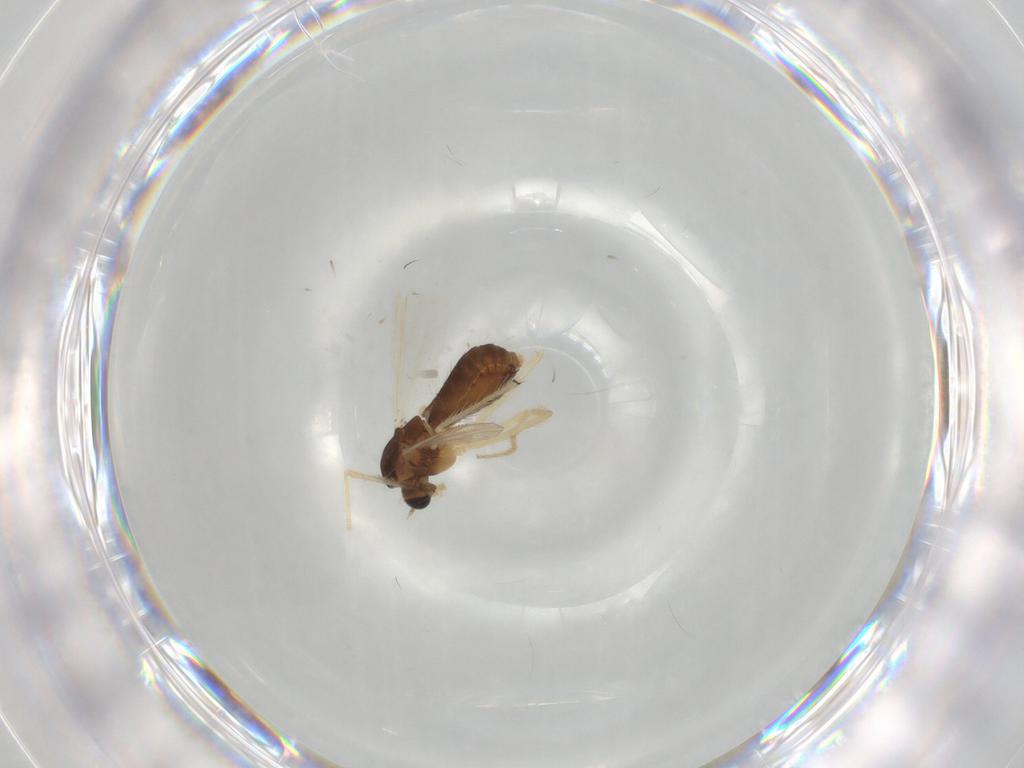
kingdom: Animalia
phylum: Arthropoda
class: Insecta
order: Diptera
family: Chironomidae
